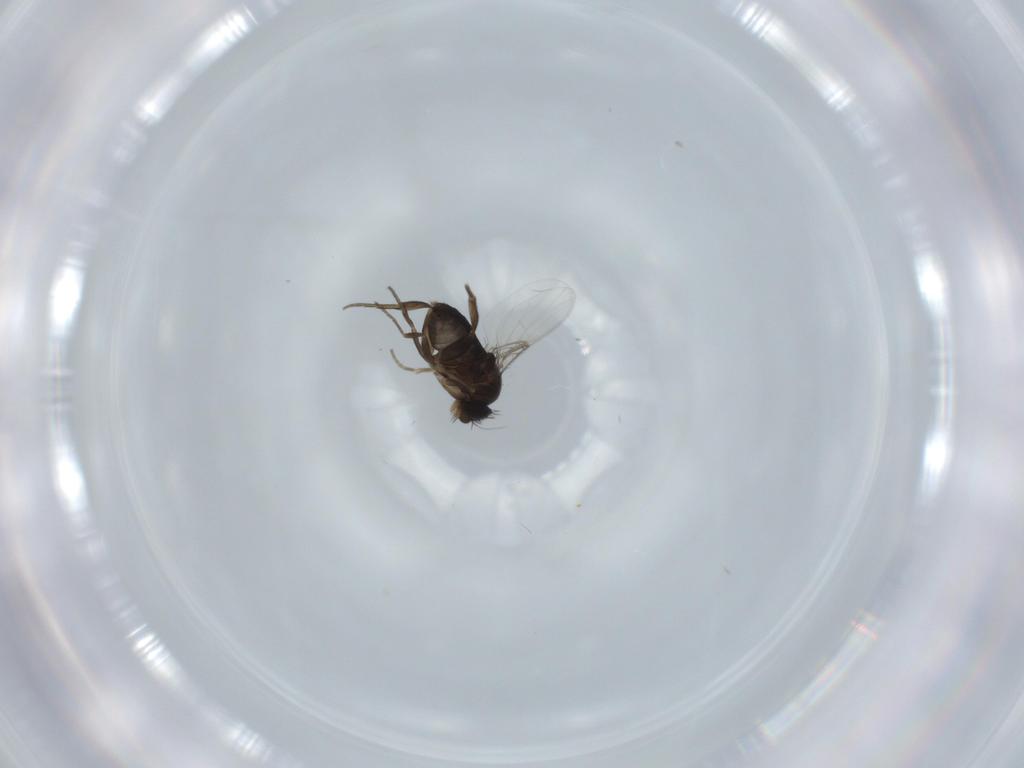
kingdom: Animalia
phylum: Arthropoda
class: Insecta
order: Diptera
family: Phoridae
